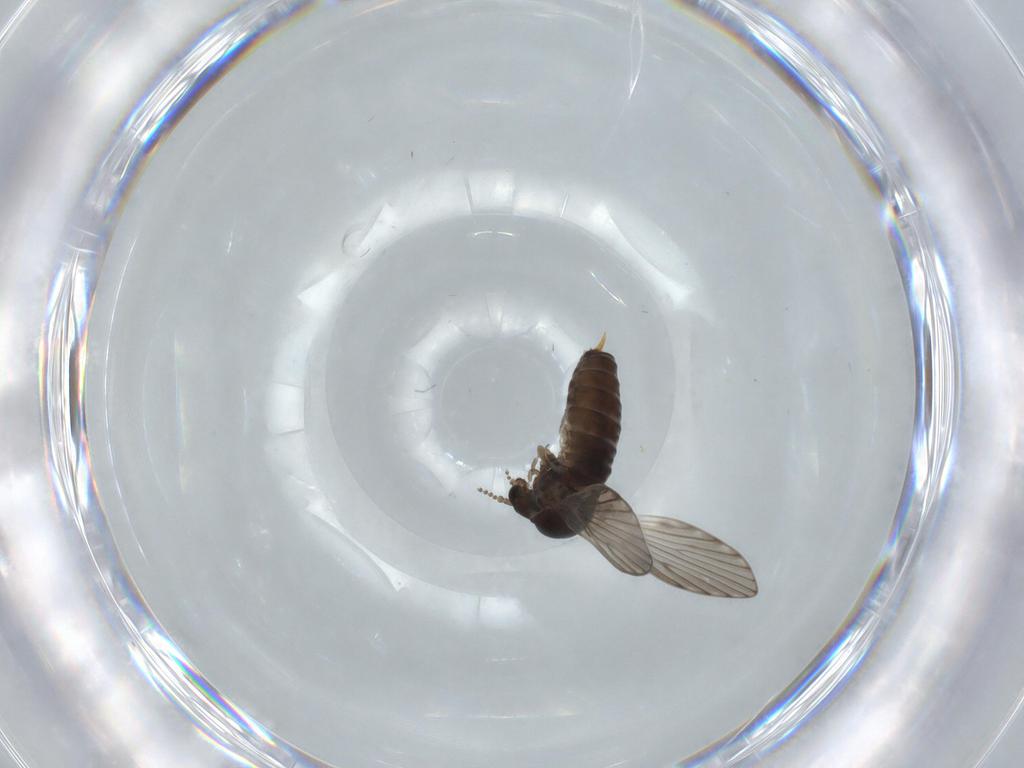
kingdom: Animalia
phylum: Arthropoda
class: Insecta
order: Diptera
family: Psychodidae
